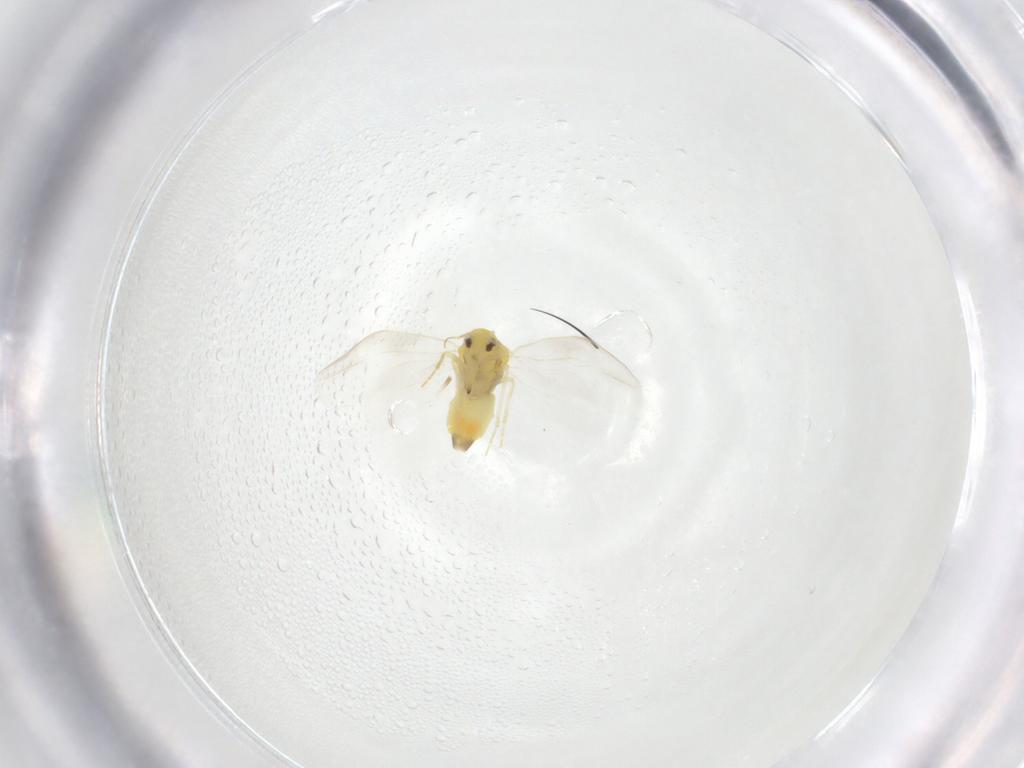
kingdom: Animalia
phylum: Arthropoda
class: Insecta
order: Hemiptera
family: Aleyrodidae
